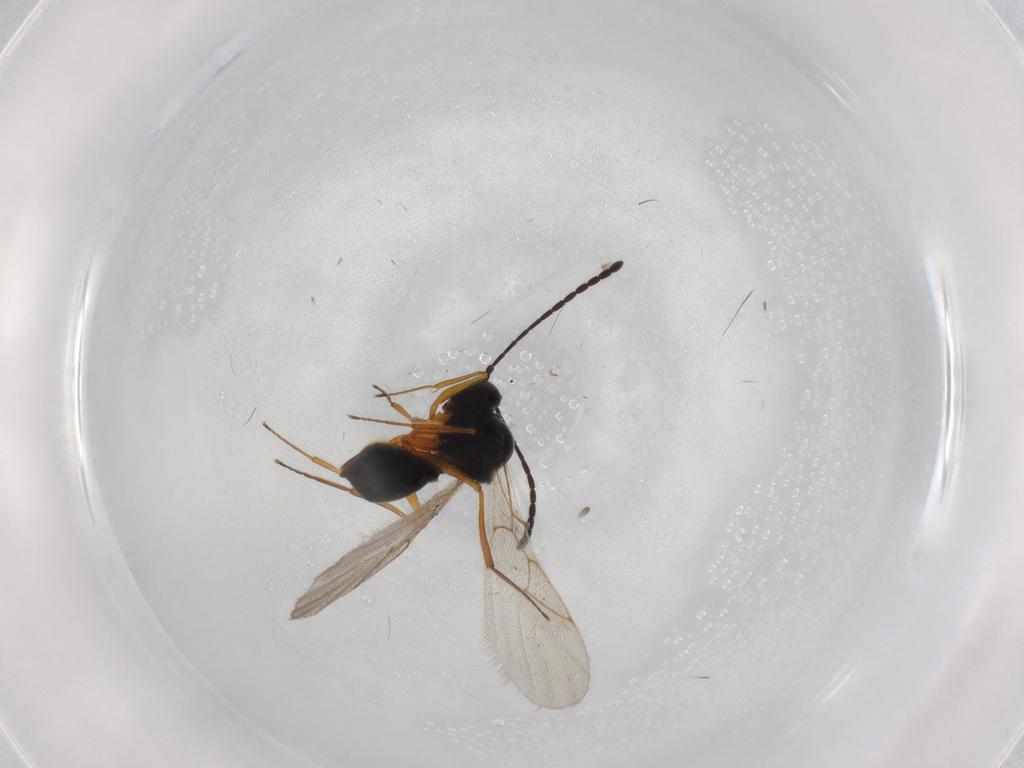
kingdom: Animalia
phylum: Arthropoda
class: Insecta
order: Hymenoptera
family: Figitidae
